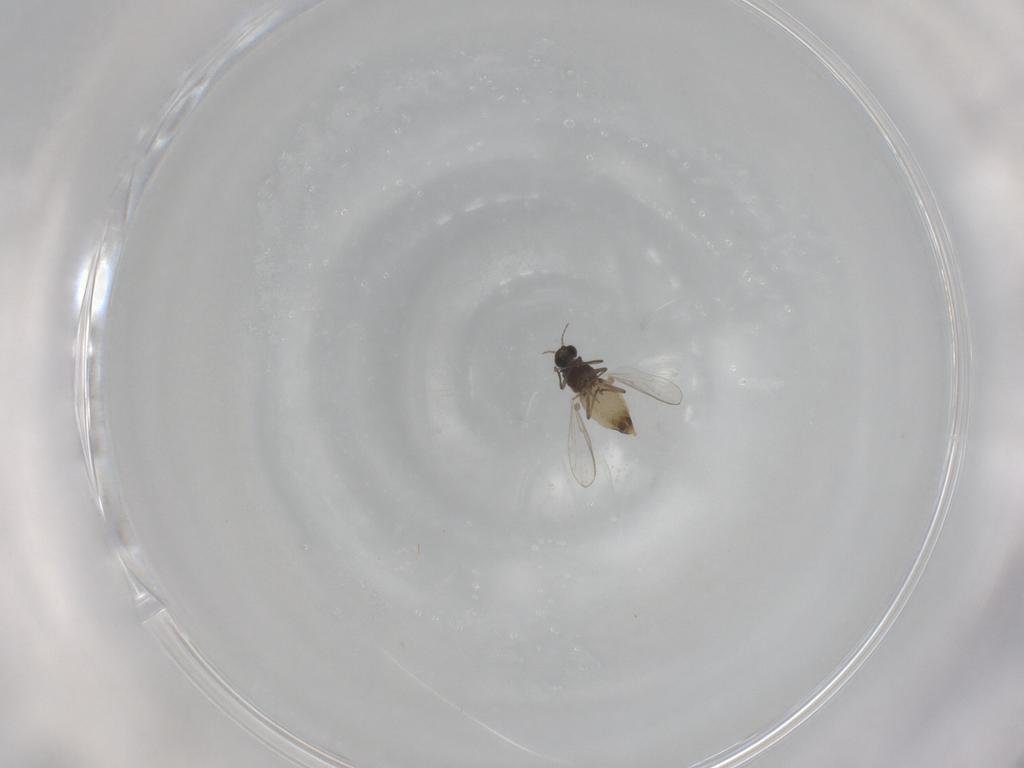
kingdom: Animalia
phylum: Arthropoda
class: Insecta
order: Diptera
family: Chironomidae
